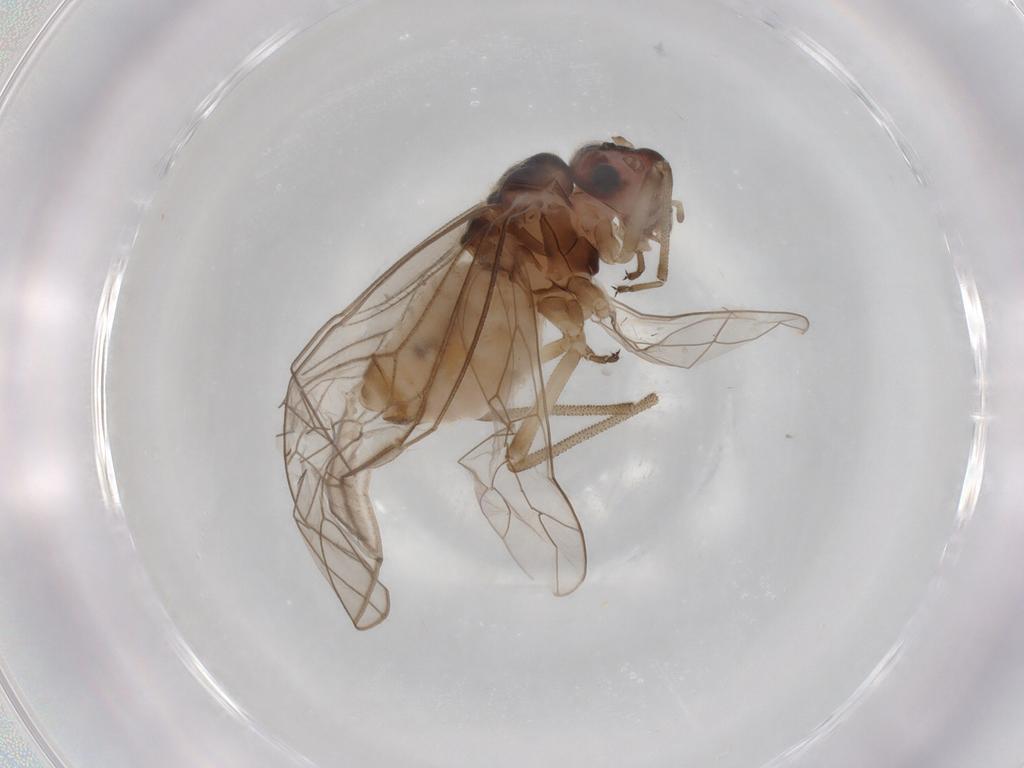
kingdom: Animalia
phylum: Arthropoda
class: Insecta
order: Psocodea
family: Stenopsocidae
